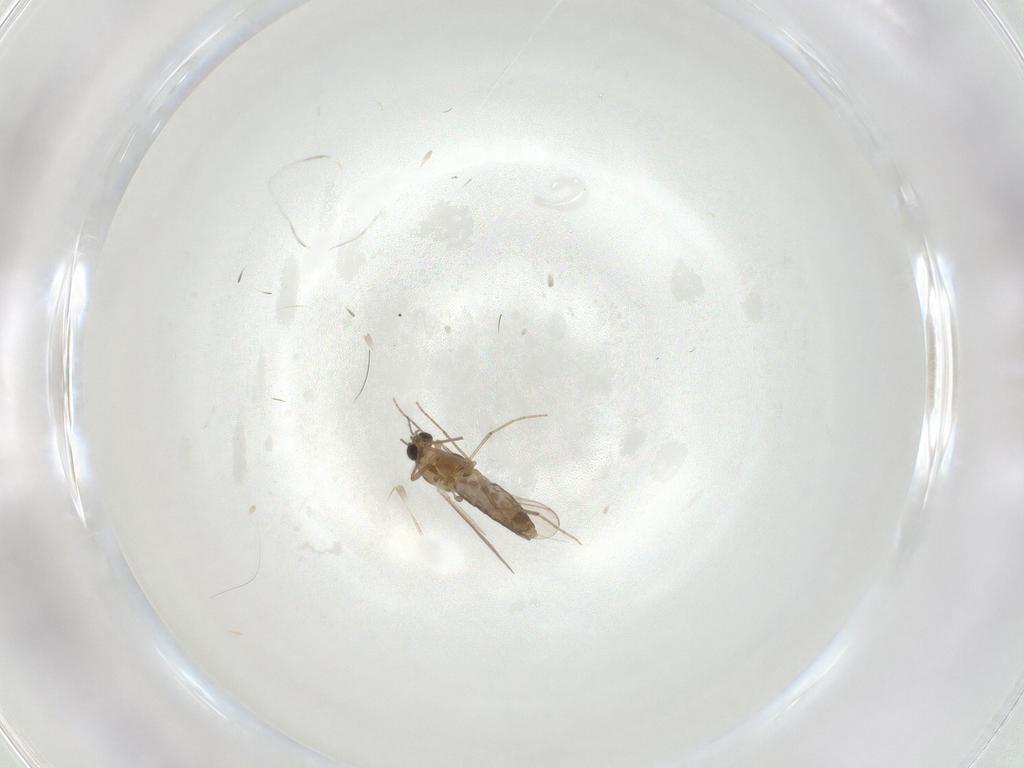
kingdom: Animalia
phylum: Arthropoda
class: Insecta
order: Diptera
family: Chironomidae
